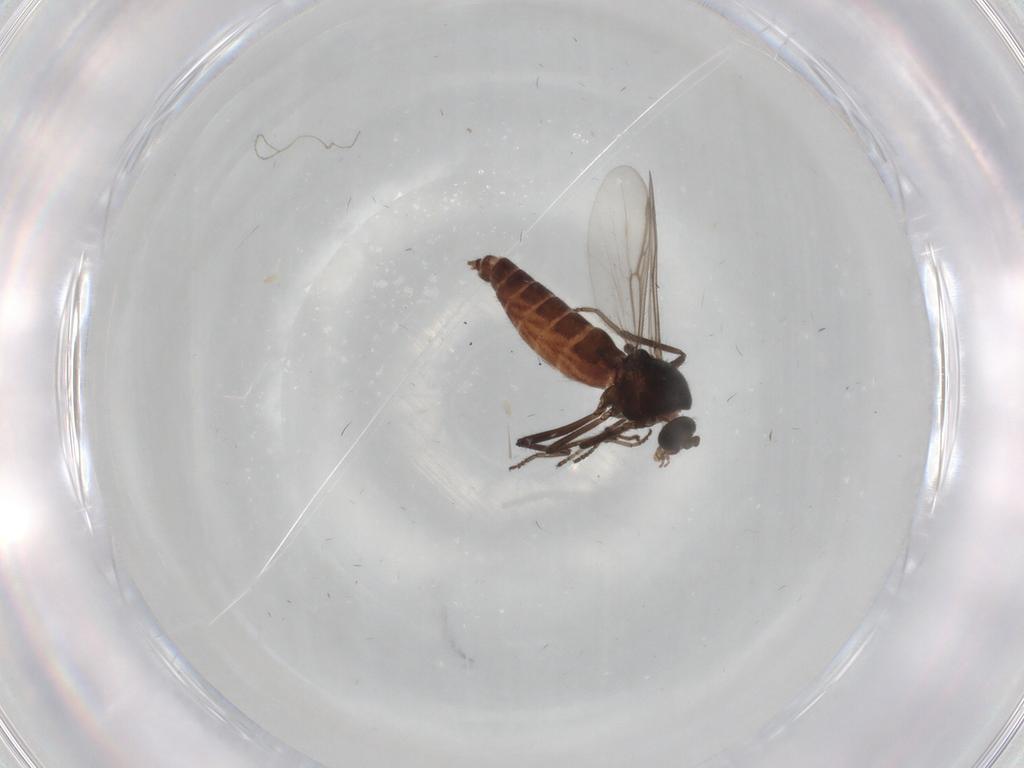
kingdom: Animalia
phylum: Arthropoda
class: Insecta
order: Diptera
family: Ceratopogonidae
